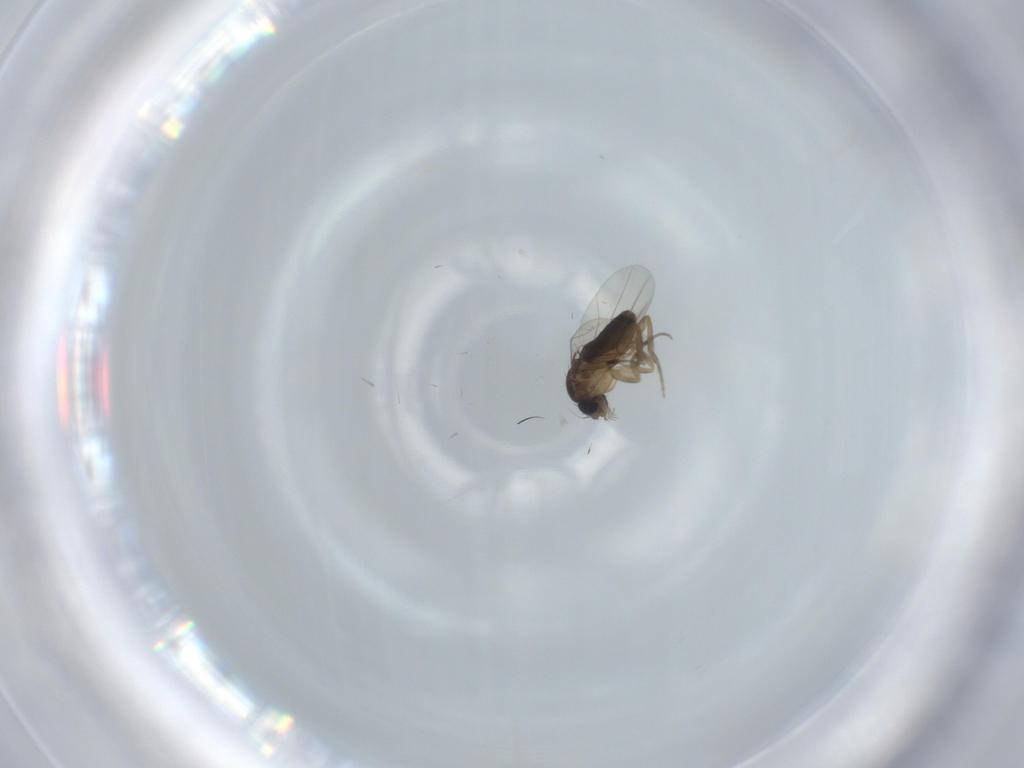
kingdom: Animalia
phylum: Arthropoda
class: Insecta
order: Diptera
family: Phoridae
